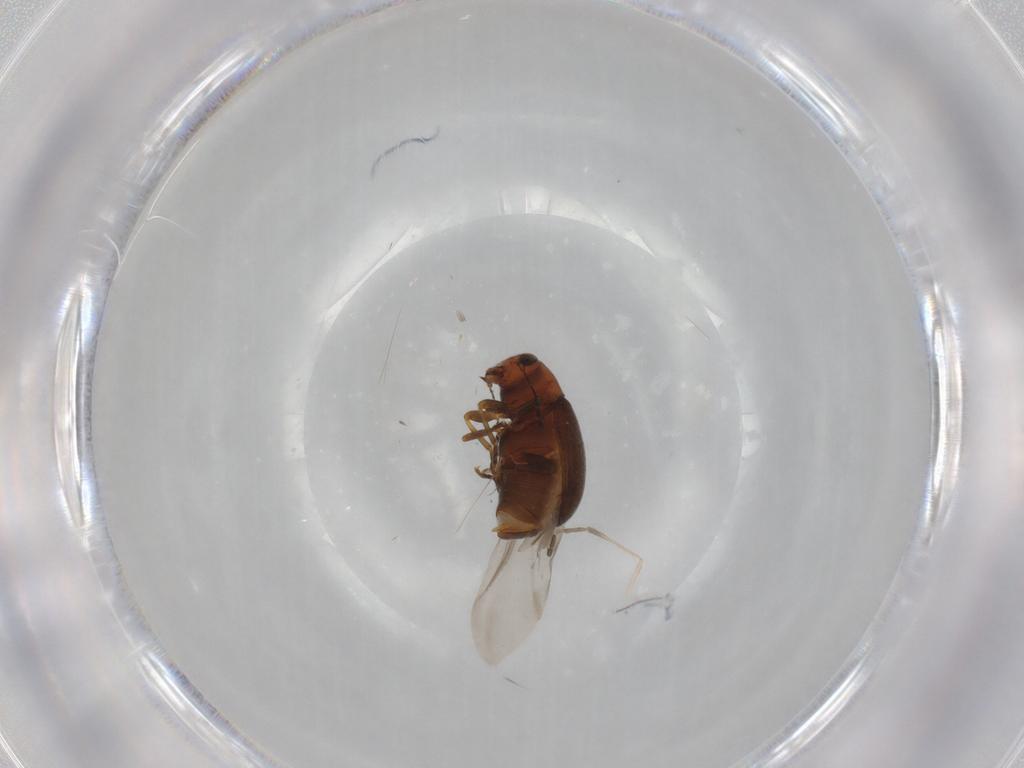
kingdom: Animalia
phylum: Arthropoda
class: Insecta
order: Coleoptera
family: Anthribidae
